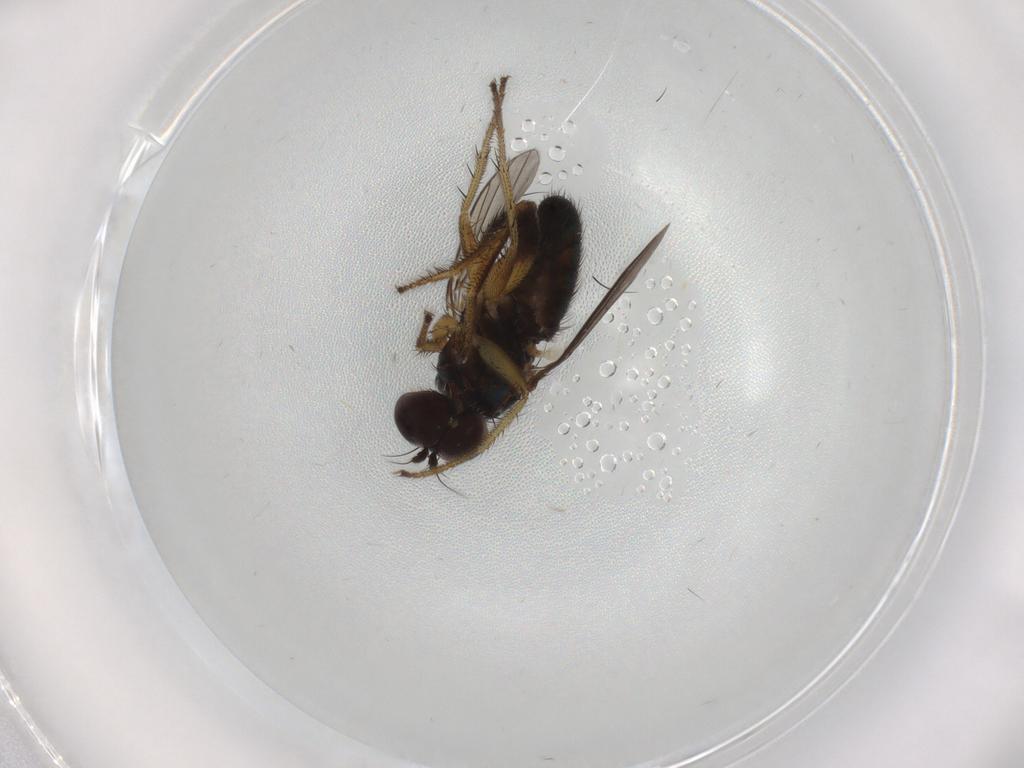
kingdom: Animalia
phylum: Arthropoda
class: Insecta
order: Diptera
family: Dolichopodidae
